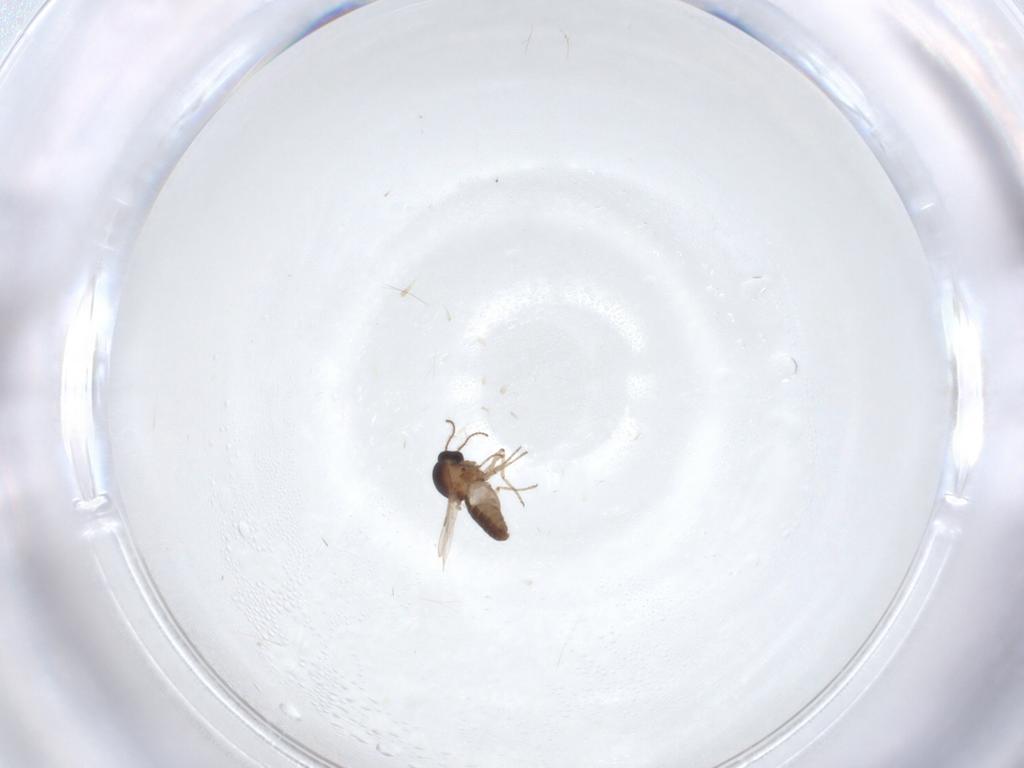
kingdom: Animalia
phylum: Arthropoda
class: Insecta
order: Diptera
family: Ceratopogonidae
